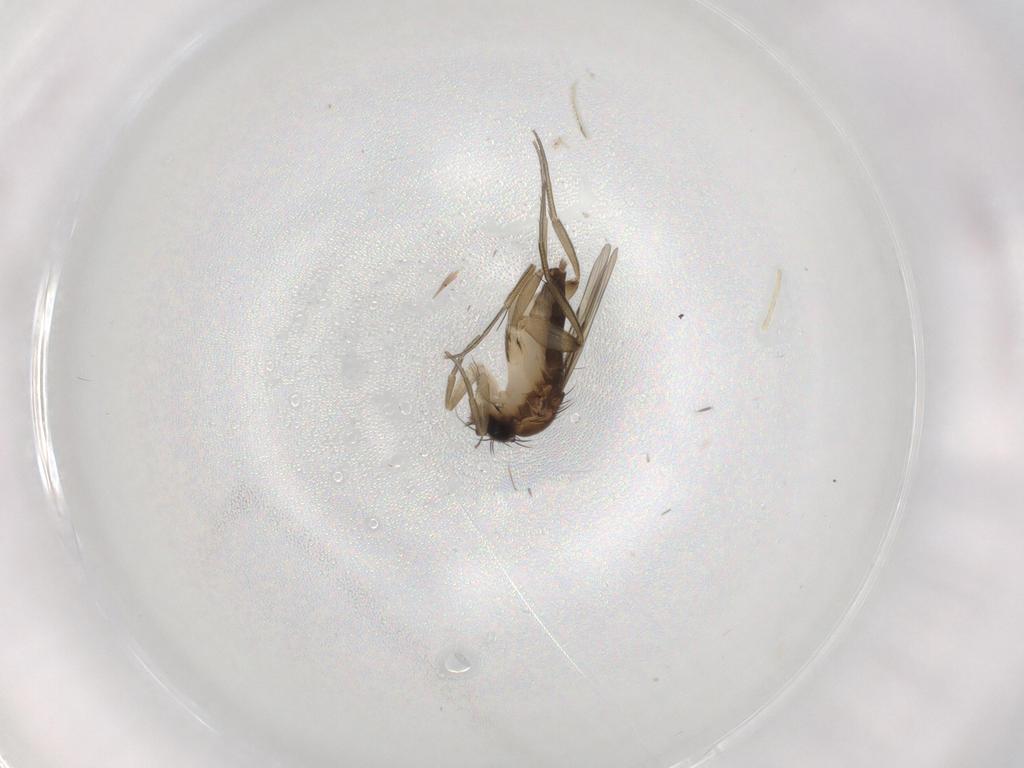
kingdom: Animalia
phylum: Arthropoda
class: Insecta
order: Diptera
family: Phoridae
